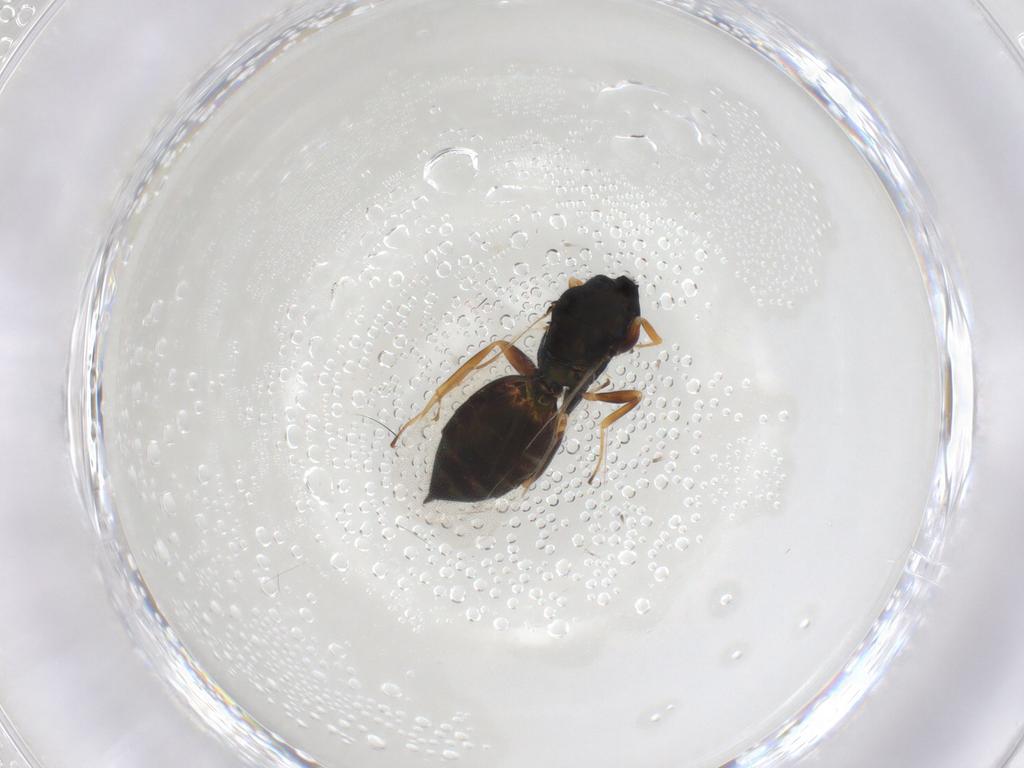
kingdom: Animalia
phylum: Arthropoda
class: Insecta
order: Hymenoptera
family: Pteromalidae
